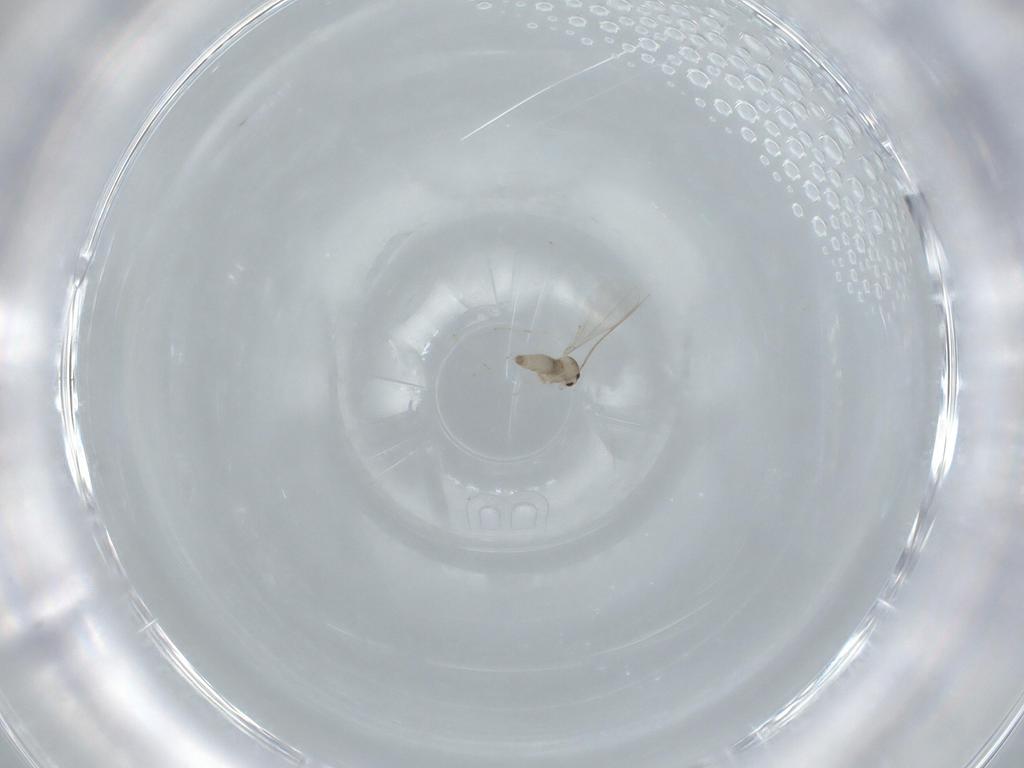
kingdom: Animalia
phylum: Arthropoda
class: Insecta
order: Diptera
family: Cecidomyiidae
